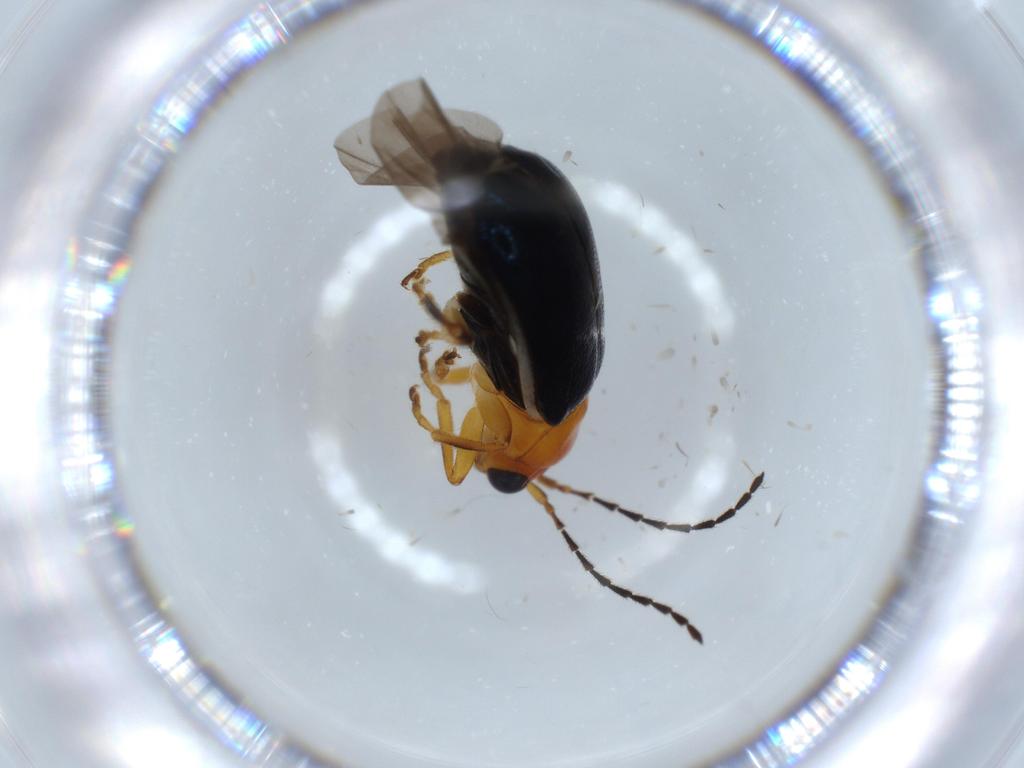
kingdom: Animalia
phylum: Arthropoda
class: Insecta
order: Coleoptera
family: Chrysomelidae
